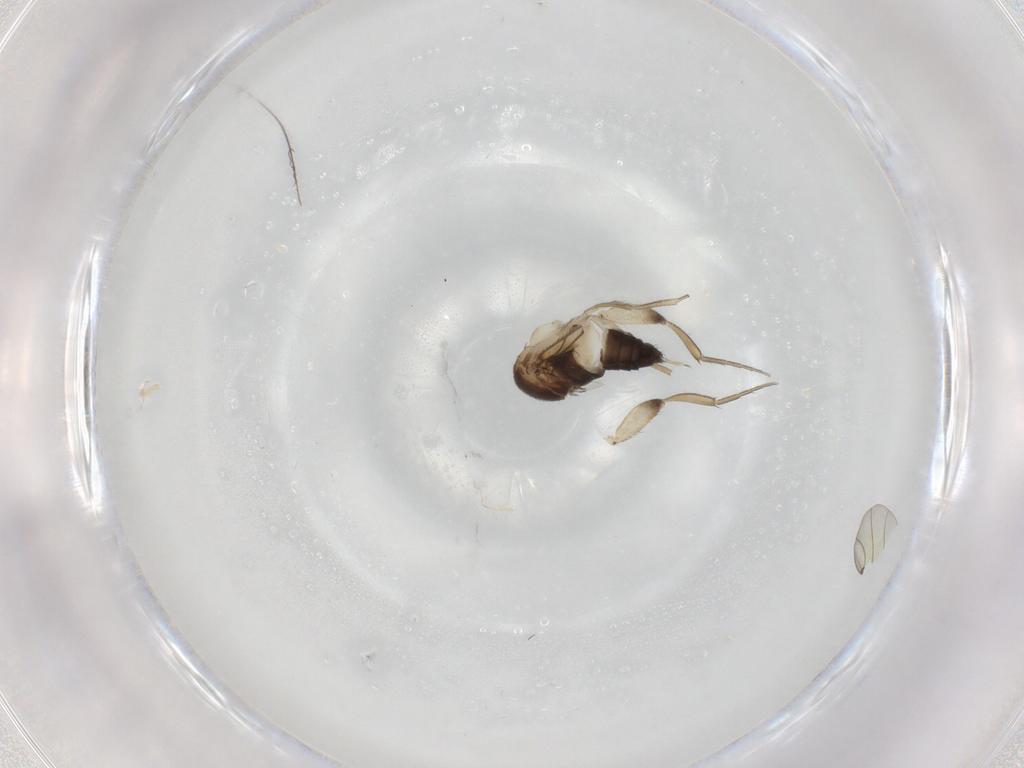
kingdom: Animalia
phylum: Arthropoda
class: Insecta
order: Diptera
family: Phoridae
